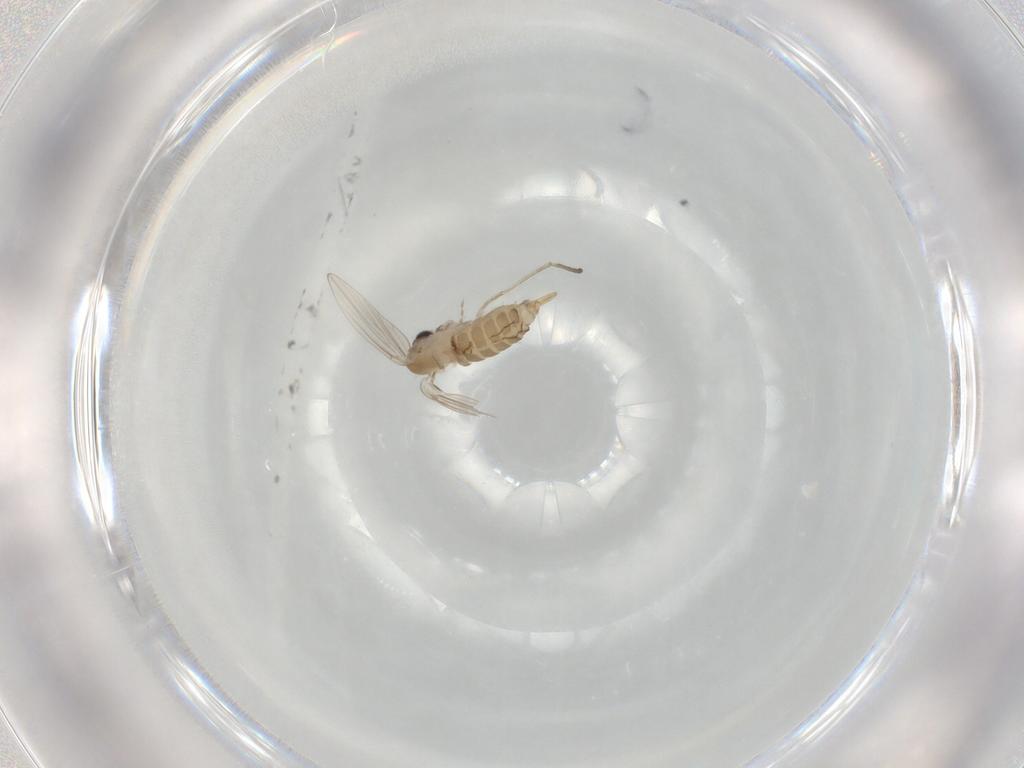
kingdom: Animalia
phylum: Arthropoda
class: Insecta
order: Diptera
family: Psychodidae
